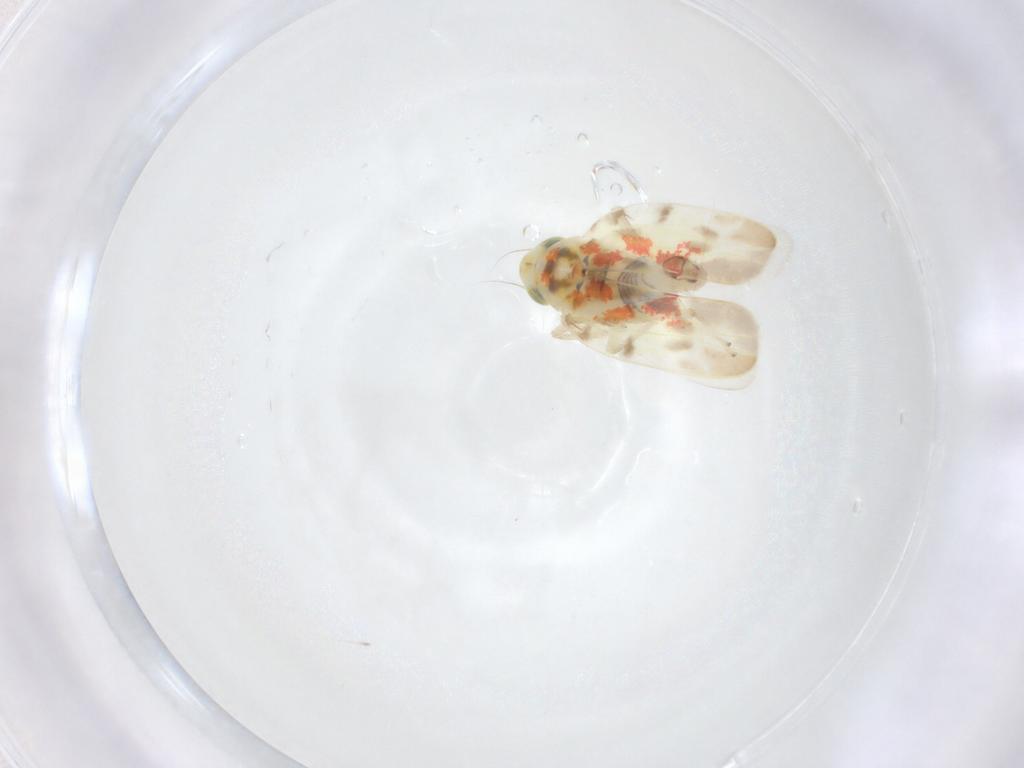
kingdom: Animalia
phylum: Arthropoda
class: Insecta
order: Hemiptera
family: Cicadellidae
